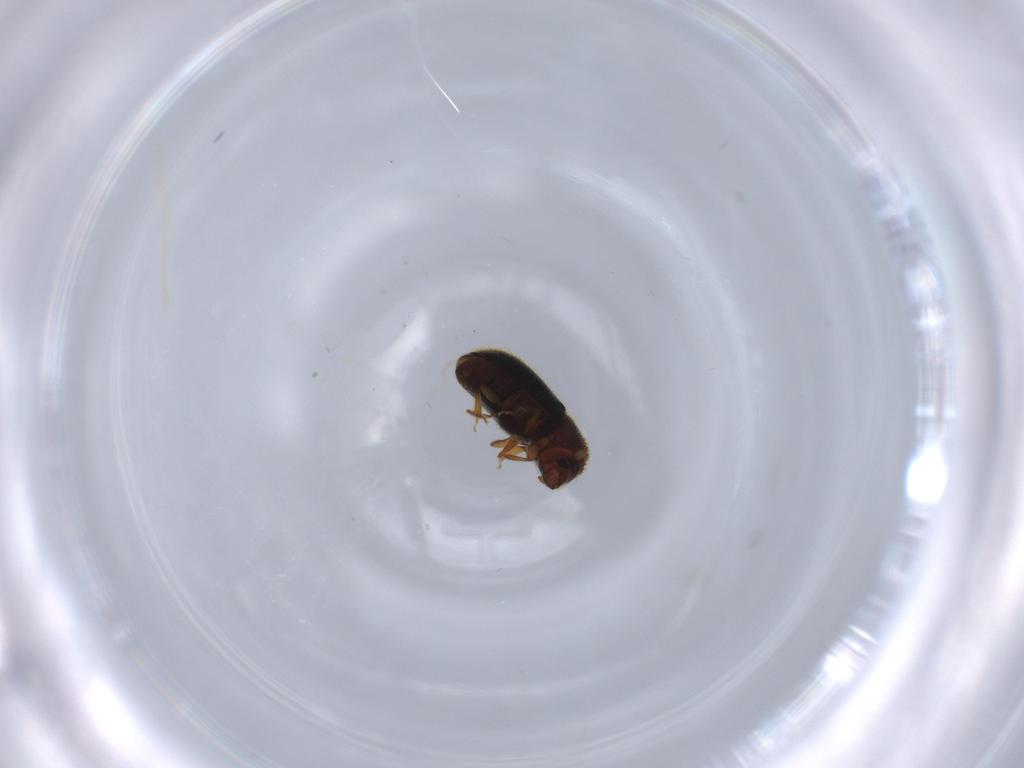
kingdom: Animalia
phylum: Arthropoda
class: Insecta
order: Coleoptera
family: Curculionidae
